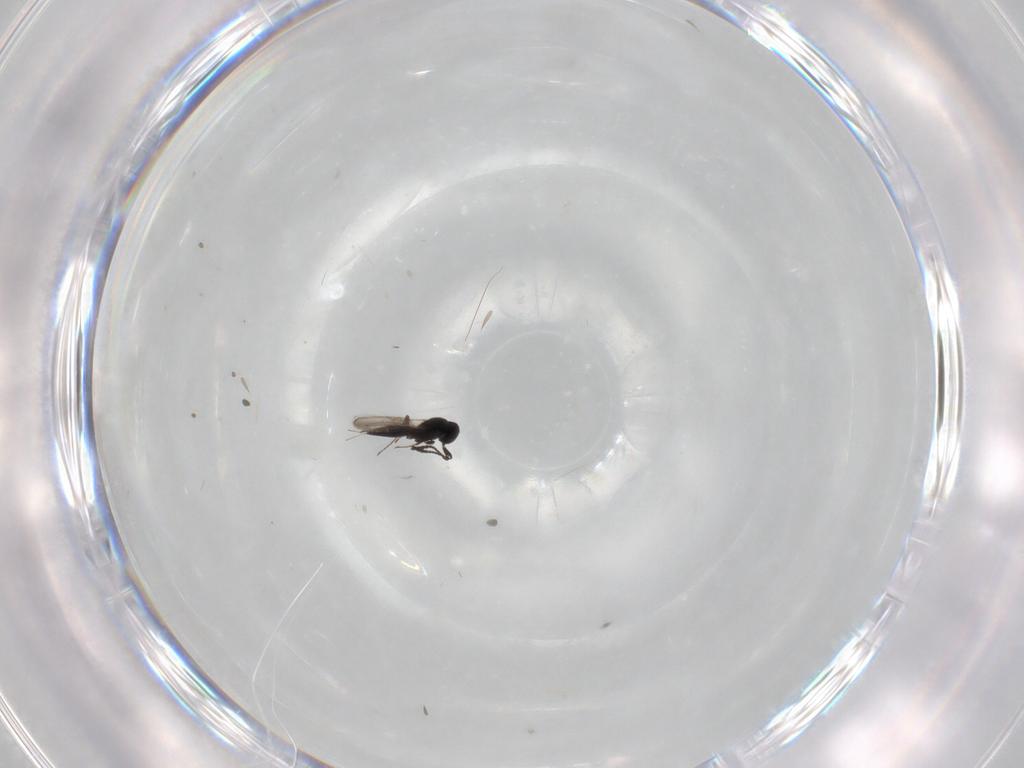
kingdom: Animalia
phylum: Arthropoda
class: Insecta
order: Hymenoptera
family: Scelionidae
